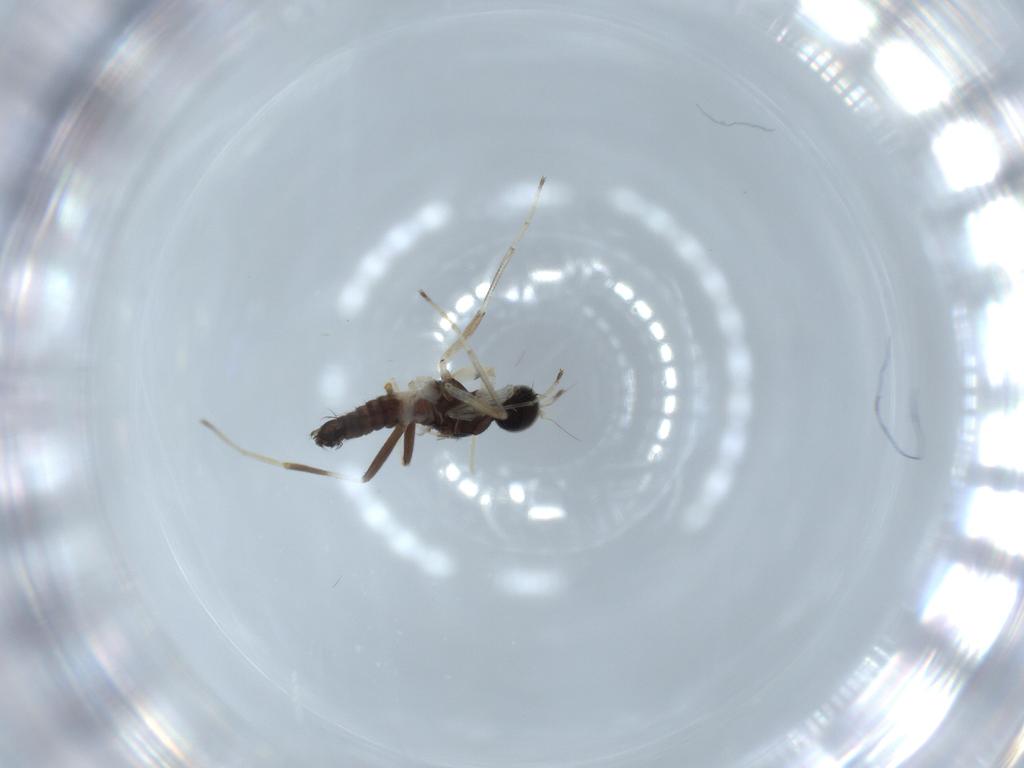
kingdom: Animalia
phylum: Arthropoda
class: Insecta
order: Diptera
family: Hybotidae
